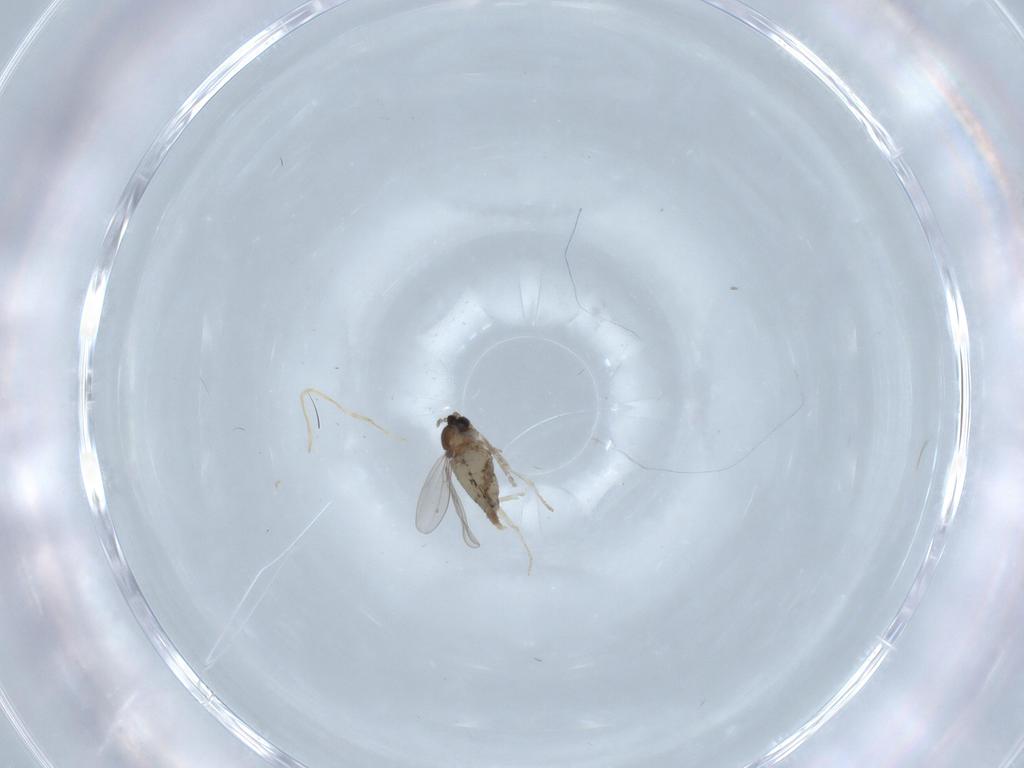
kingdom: Animalia
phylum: Arthropoda
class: Insecta
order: Diptera
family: Cecidomyiidae
